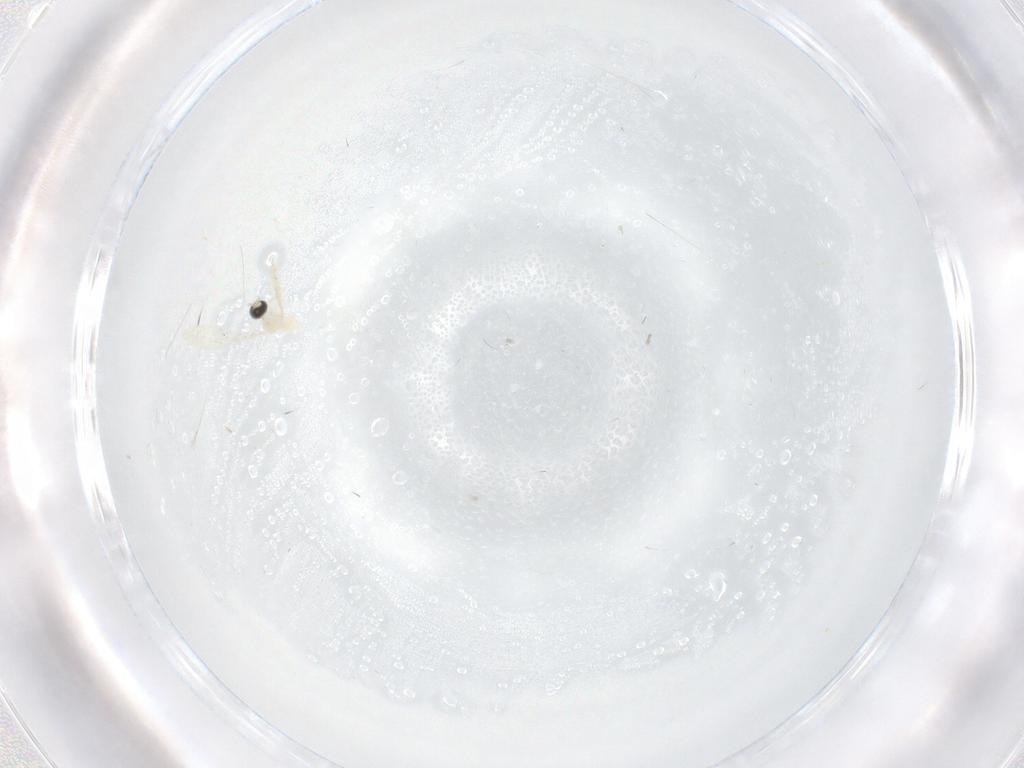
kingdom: Animalia
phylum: Arthropoda
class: Insecta
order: Diptera
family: Cecidomyiidae
